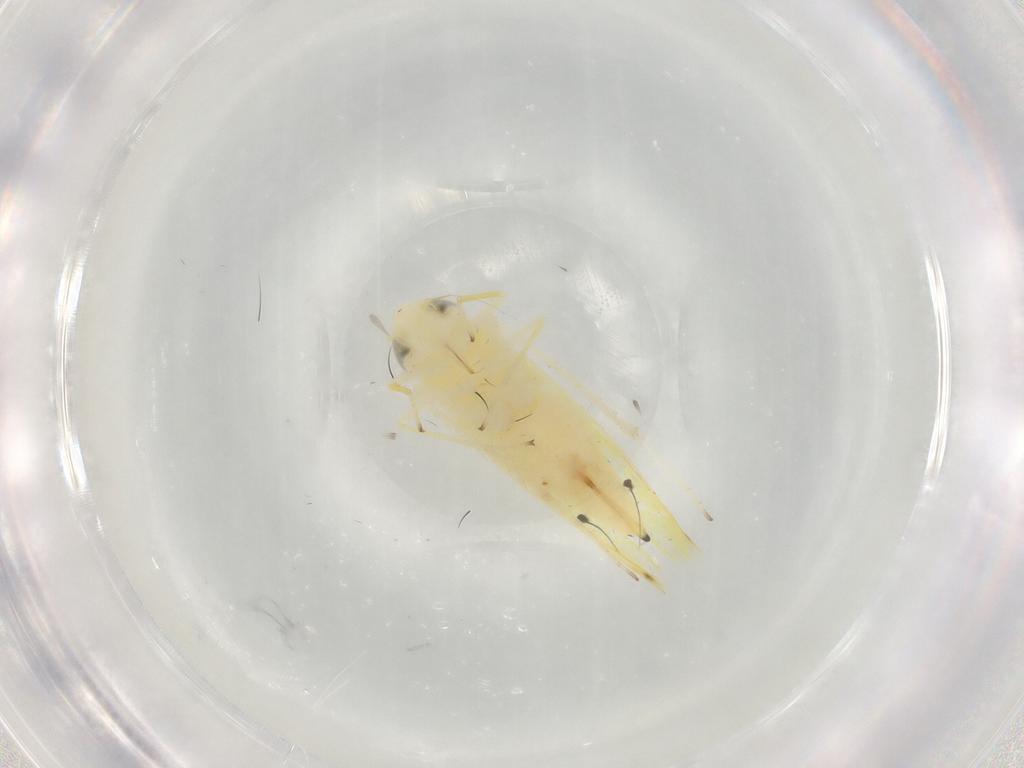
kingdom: Animalia
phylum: Arthropoda
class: Insecta
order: Hemiptera
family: Cicadellidae
